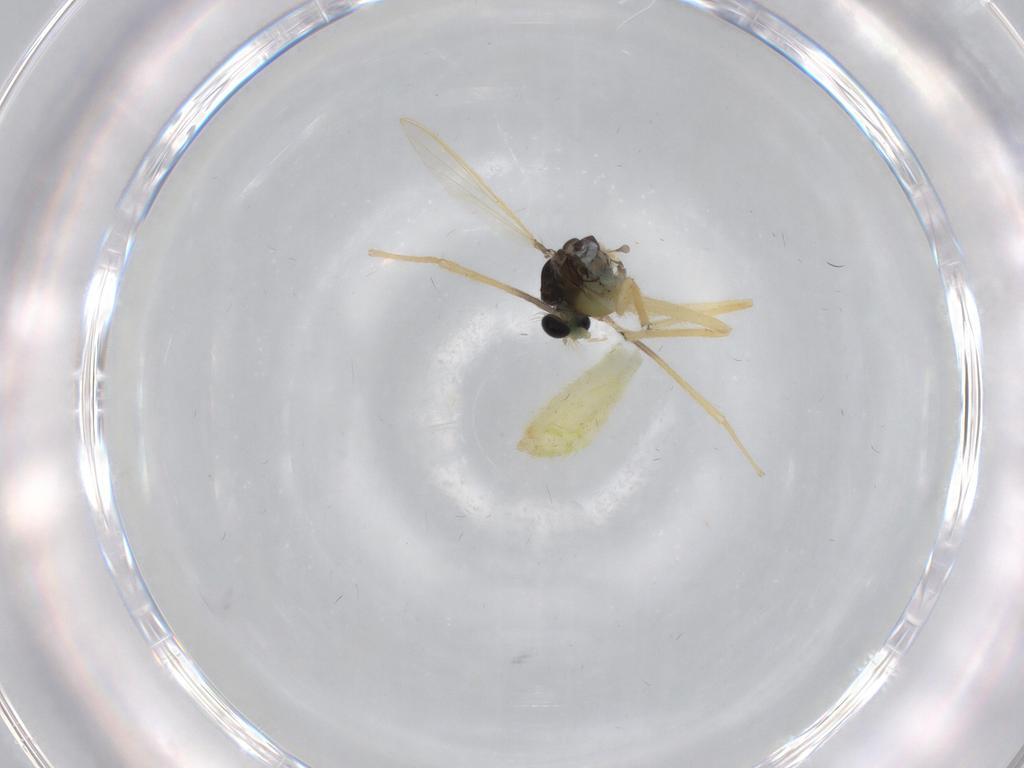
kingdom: Animalia
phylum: Arthropoda
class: Insecta
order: Diptera
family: Chironomidae
